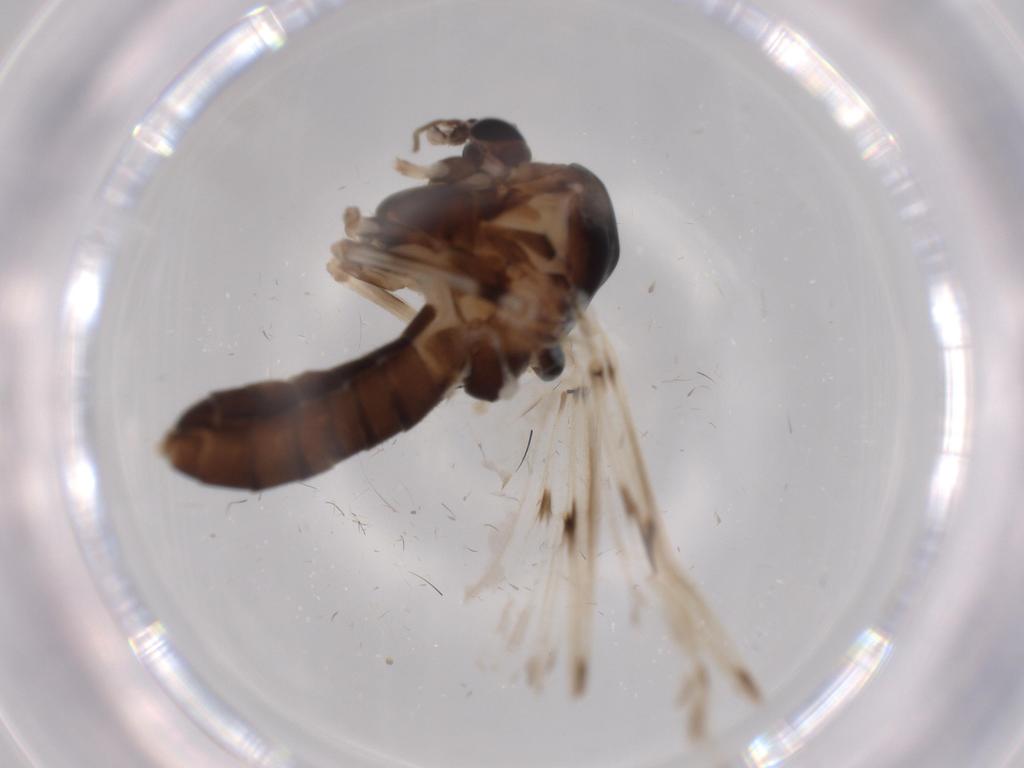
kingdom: Animalia
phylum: Arthropoda
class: Insecta
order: Diptera
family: Chironomidae
